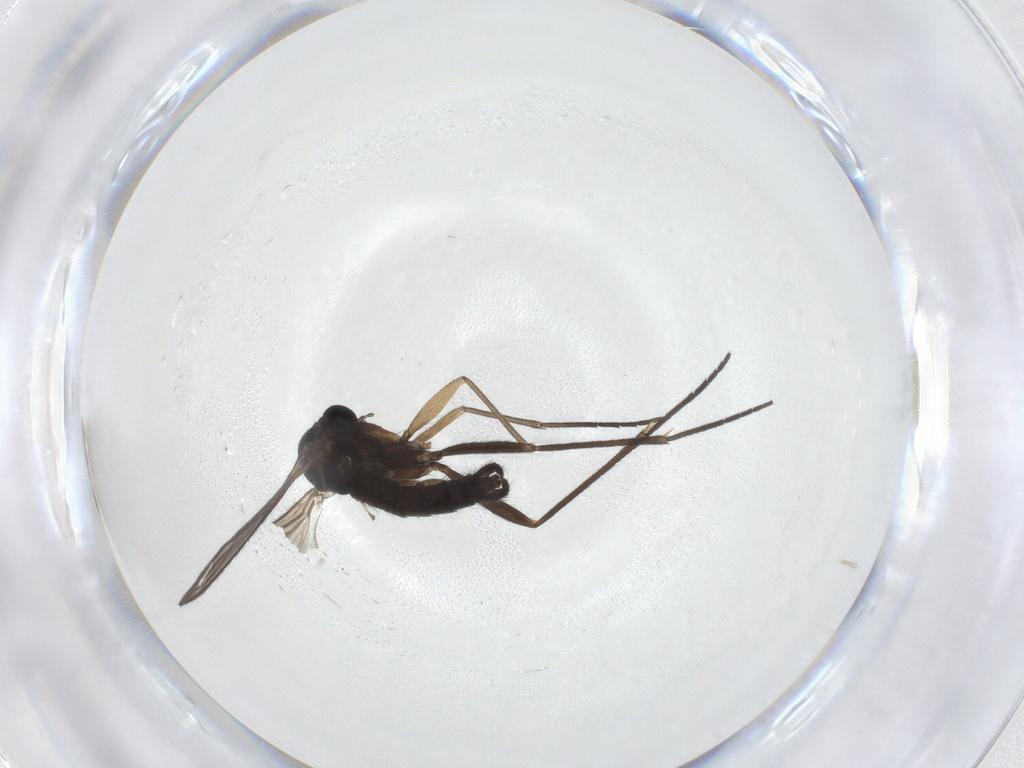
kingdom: Animalia
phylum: Arthropoda
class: Insecta
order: Diptera
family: Sciaridae
